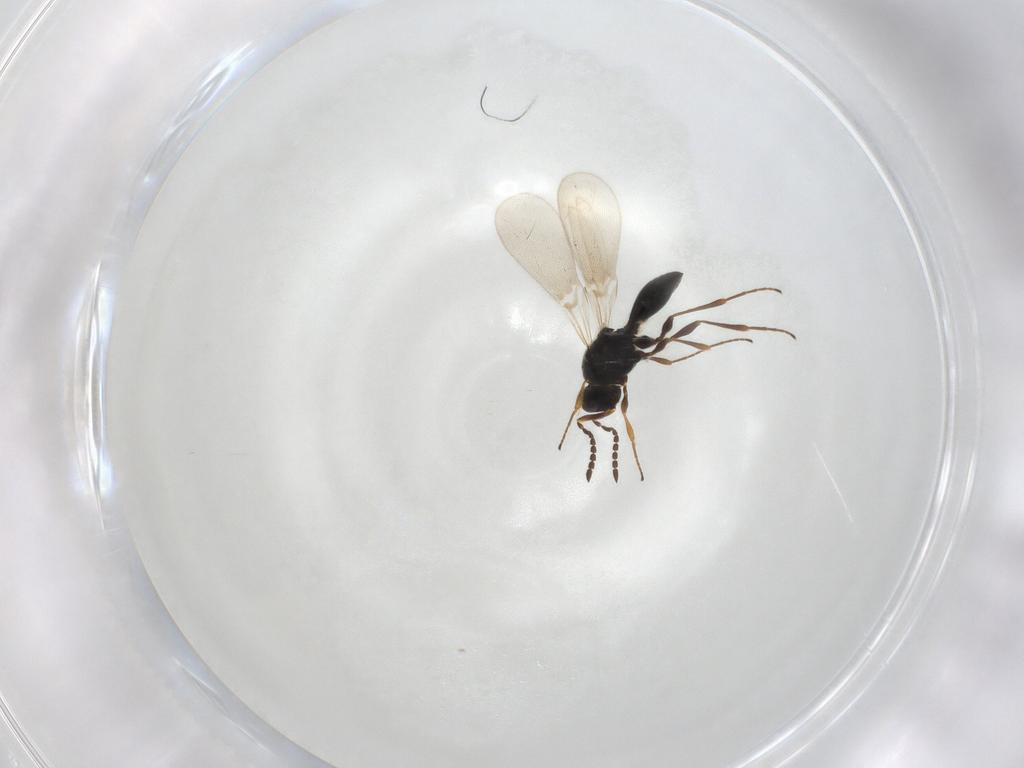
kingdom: Animalia
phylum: Arthropoda
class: Insecta
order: Hymenoptera
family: Platygastridae
